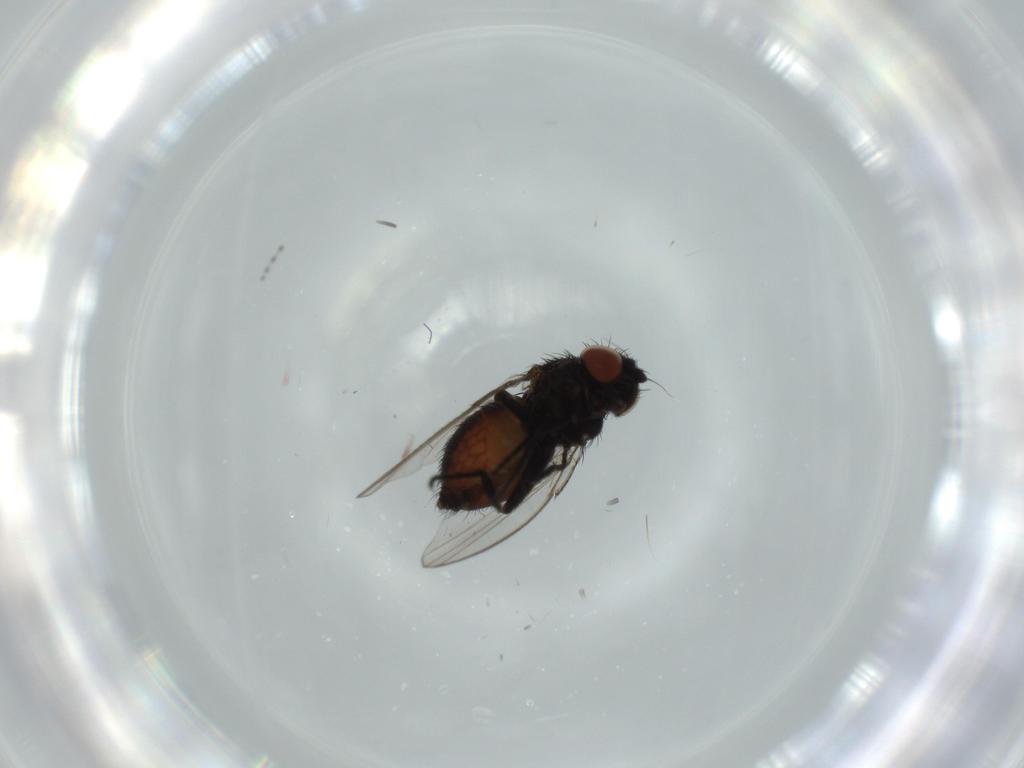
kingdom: Animalia
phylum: Arthropoda
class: Insecta
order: Diptera
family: Milichiidae
